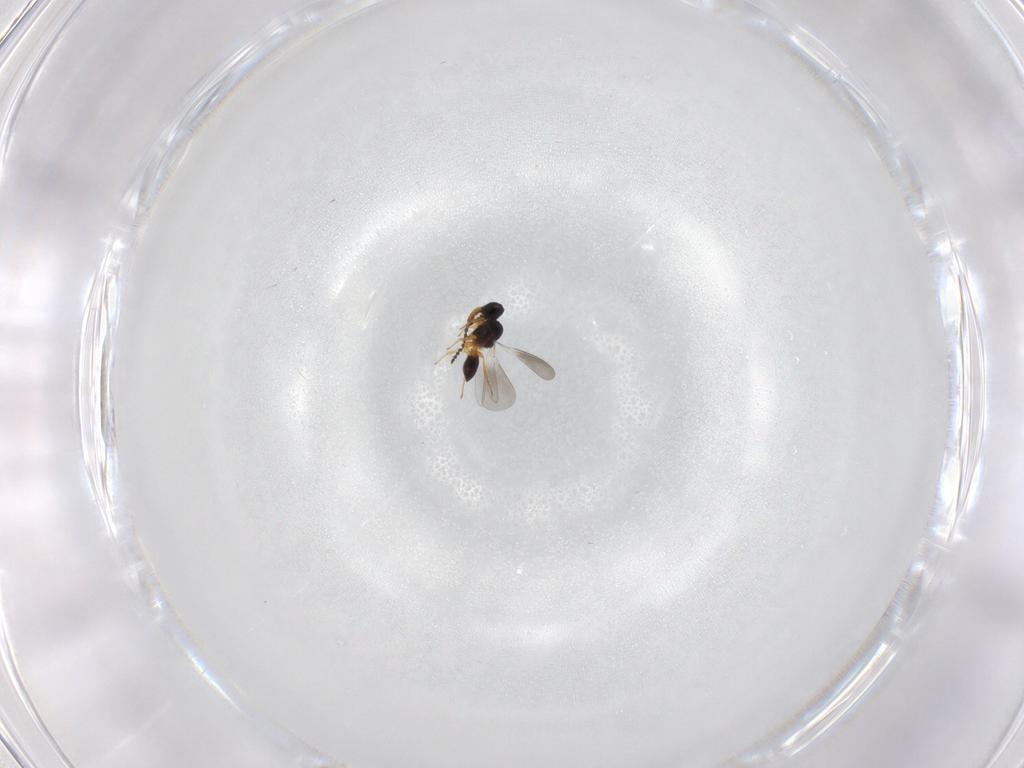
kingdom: Animalia
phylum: Arthropoda
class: Insecta
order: Hymenoptera
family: Platygastridae
